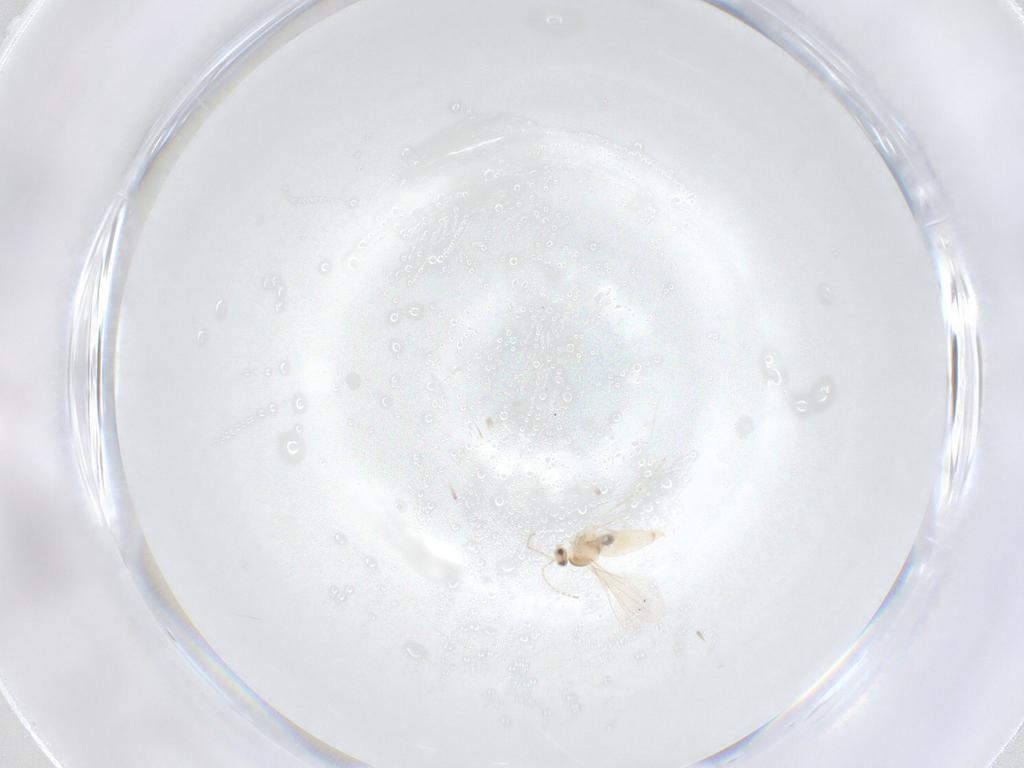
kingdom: Animalia
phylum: Arthropoda
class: Insecta
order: Diptera
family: Cecidomyiidae
